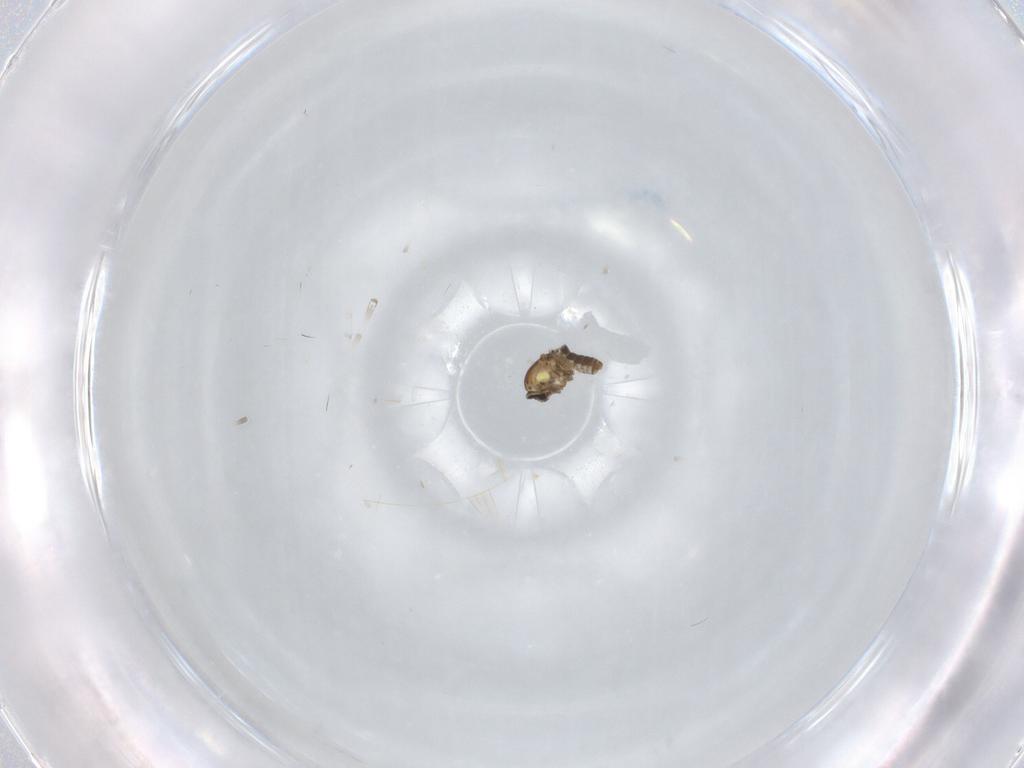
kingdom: Animalia
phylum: Arthropoda
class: Insecta
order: Diptera
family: Ceratopogonidae
